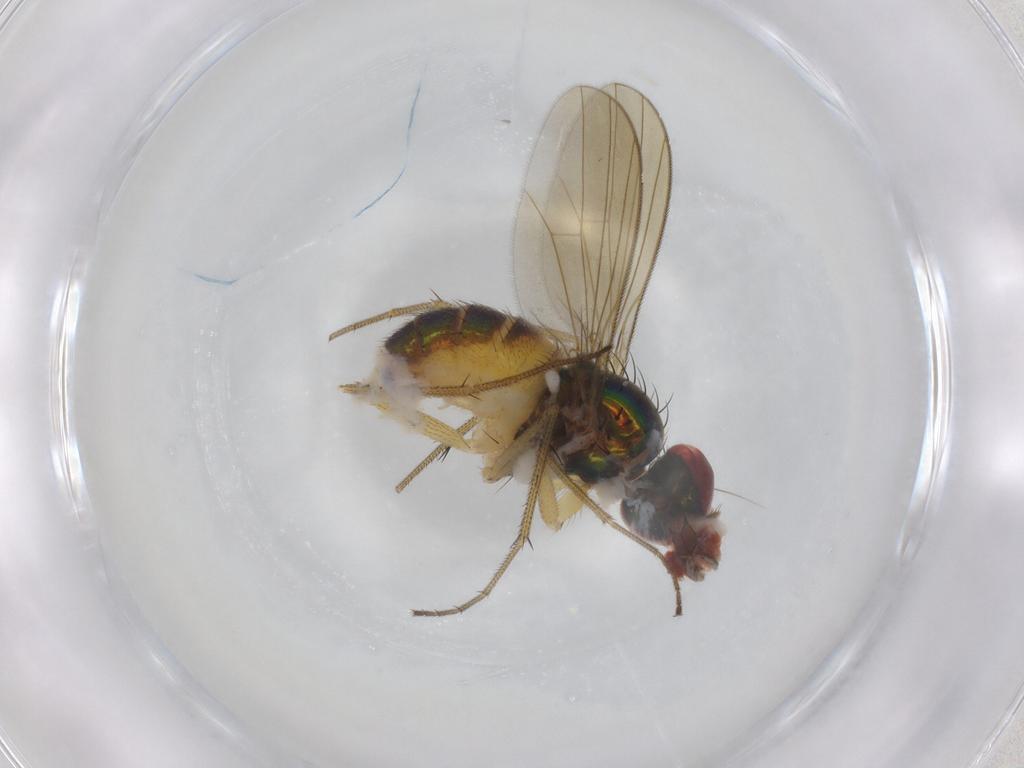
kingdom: Animalia
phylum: Arthropoda
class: Insecta
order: Diptera
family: Dolichopodidae
